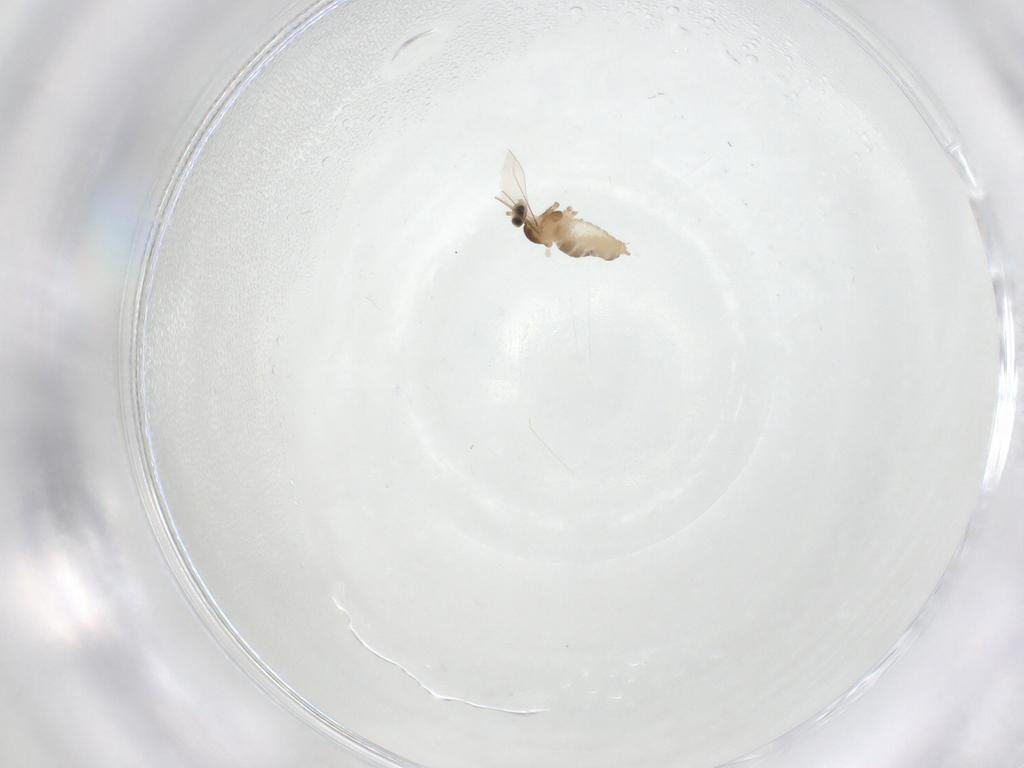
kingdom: Animalia
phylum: Arthropoda
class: Insecta
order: Diptera
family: Cecidomyiidae
